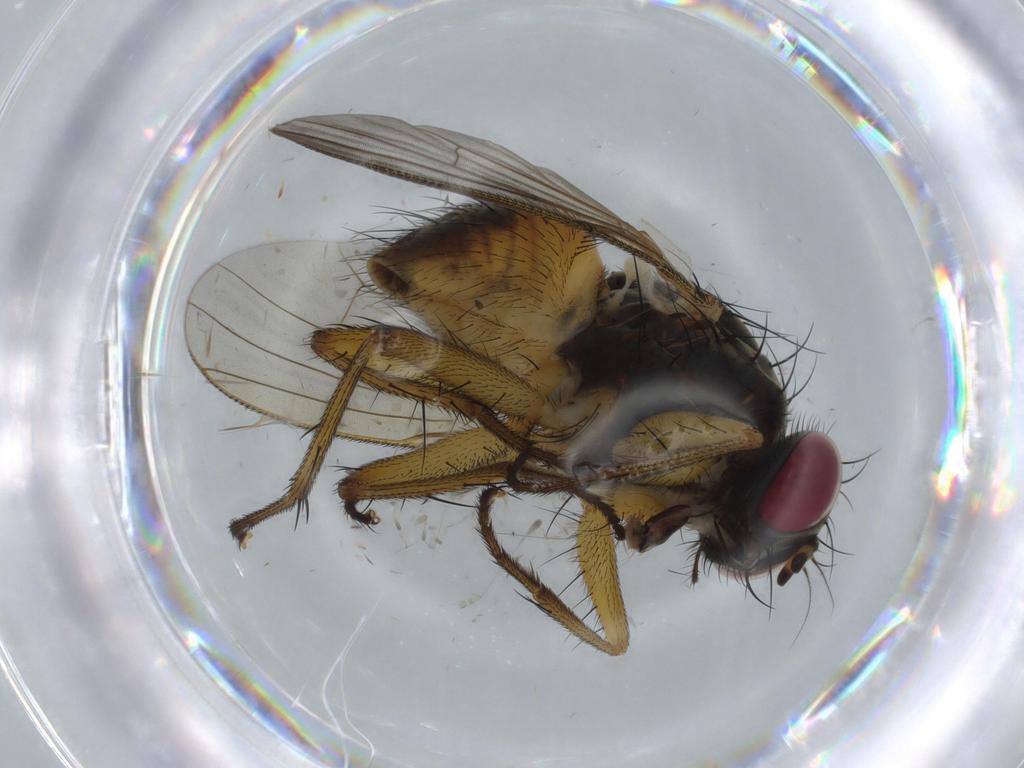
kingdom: Animalia
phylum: Arthropoda
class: Insecta
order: Diptera
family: Muscidae
